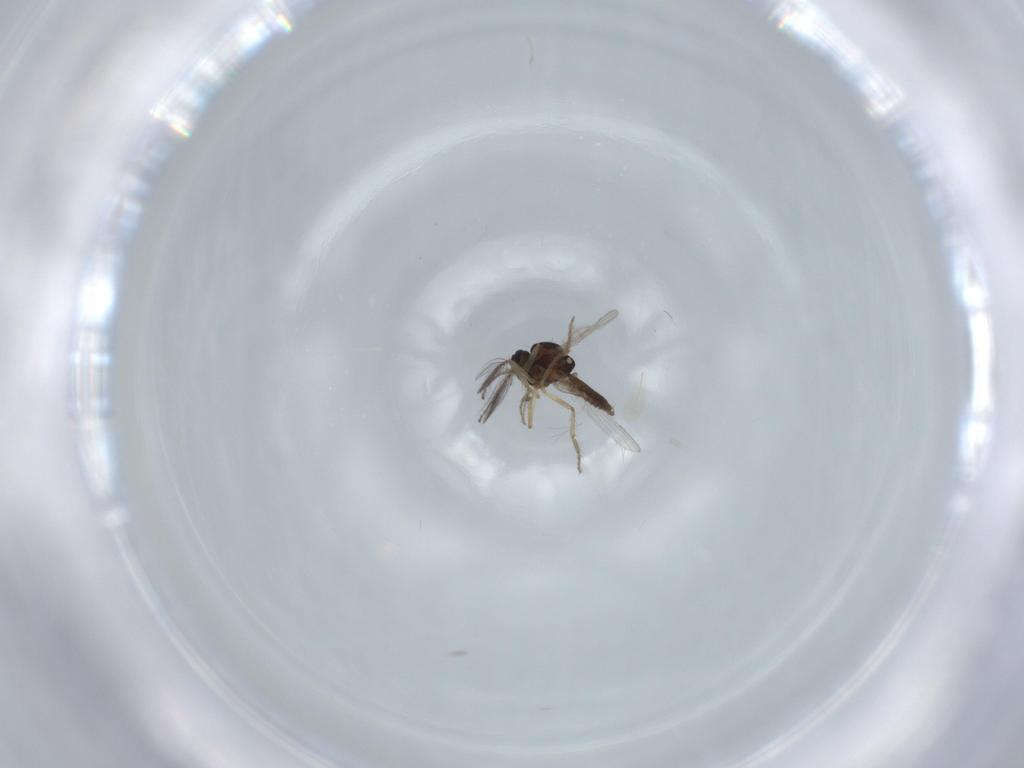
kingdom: Animalia
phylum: Arthropoda
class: Insecta
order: Diptera
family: Ceratopogonidae
